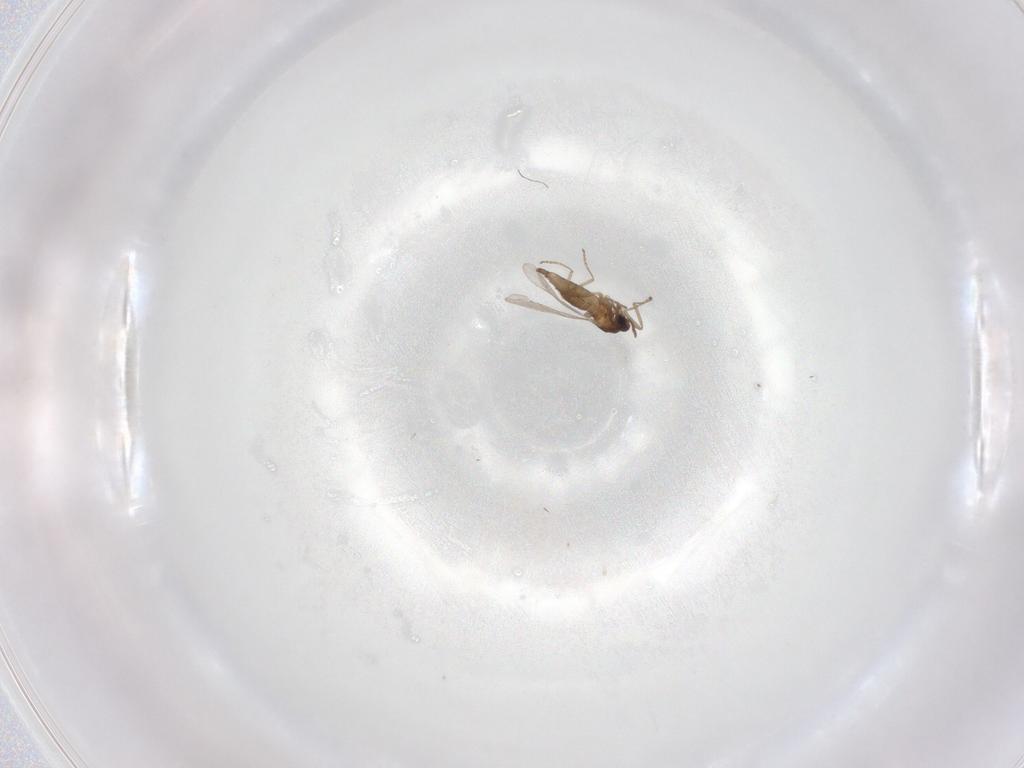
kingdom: Animalia
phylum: Arthropoda
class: Insecta
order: Diptera
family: Cecidomyiidae
